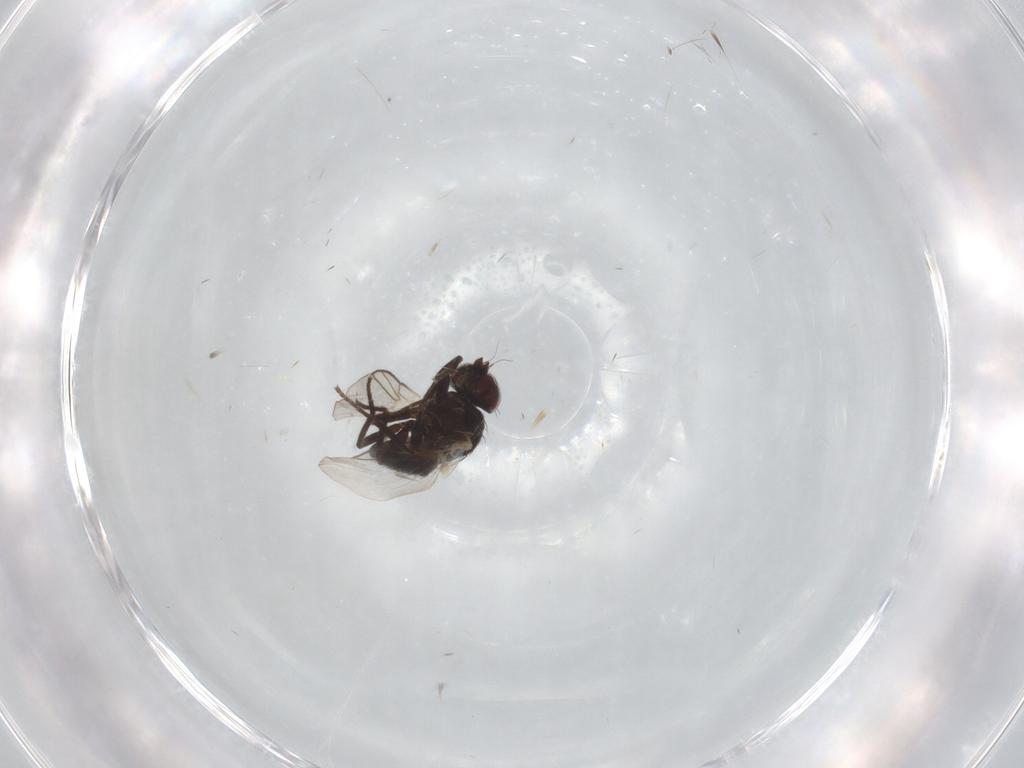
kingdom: Animalia
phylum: Arthropoda
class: Insecta
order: Diptera
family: Agromyzidae
